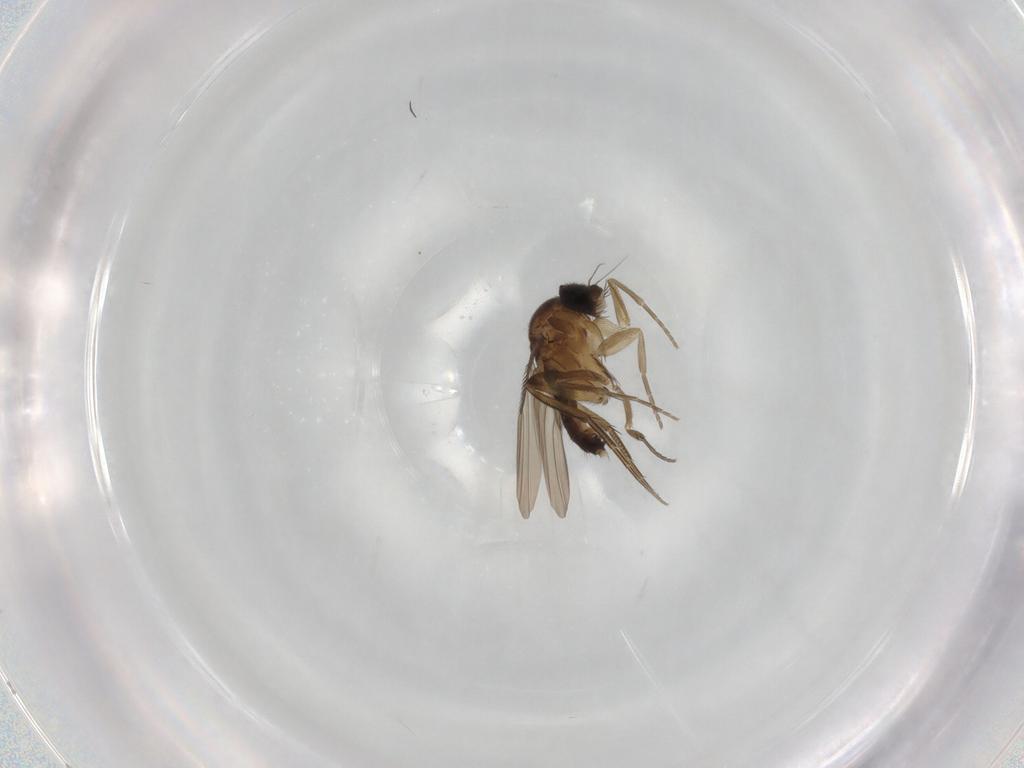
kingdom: Animalia
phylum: Arthropoda
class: Insecta
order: Diptera
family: Phoridae
